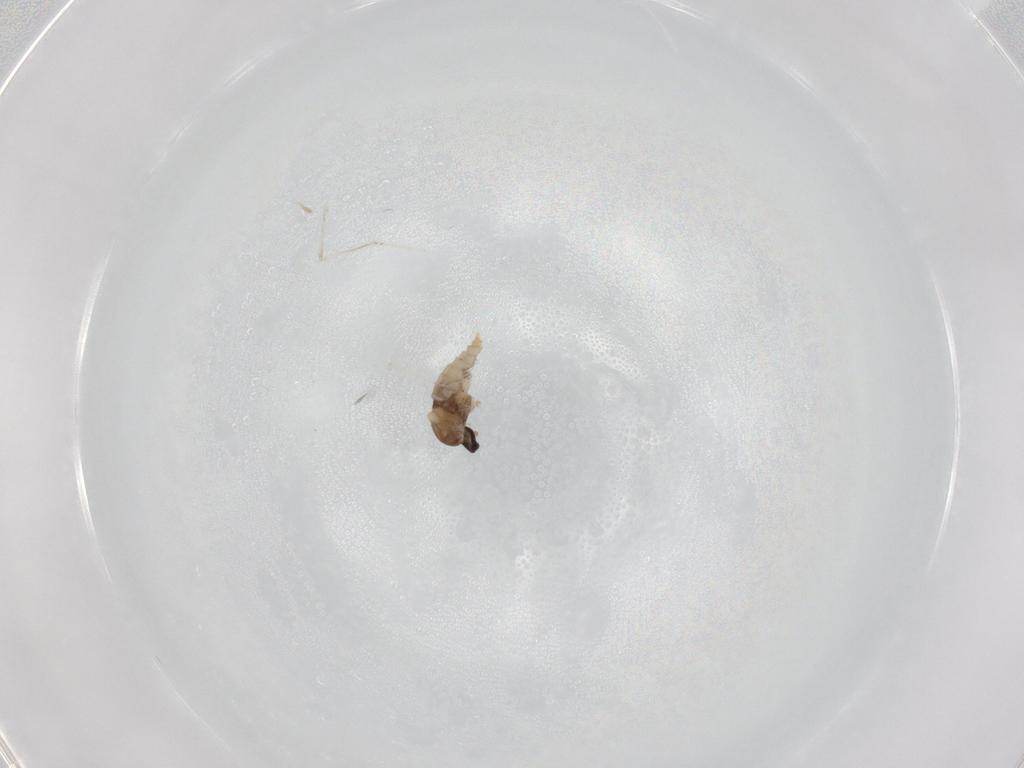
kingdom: Animalia
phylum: Arthropoda
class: Insecta
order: Diptera
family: Cecidomyiidae
